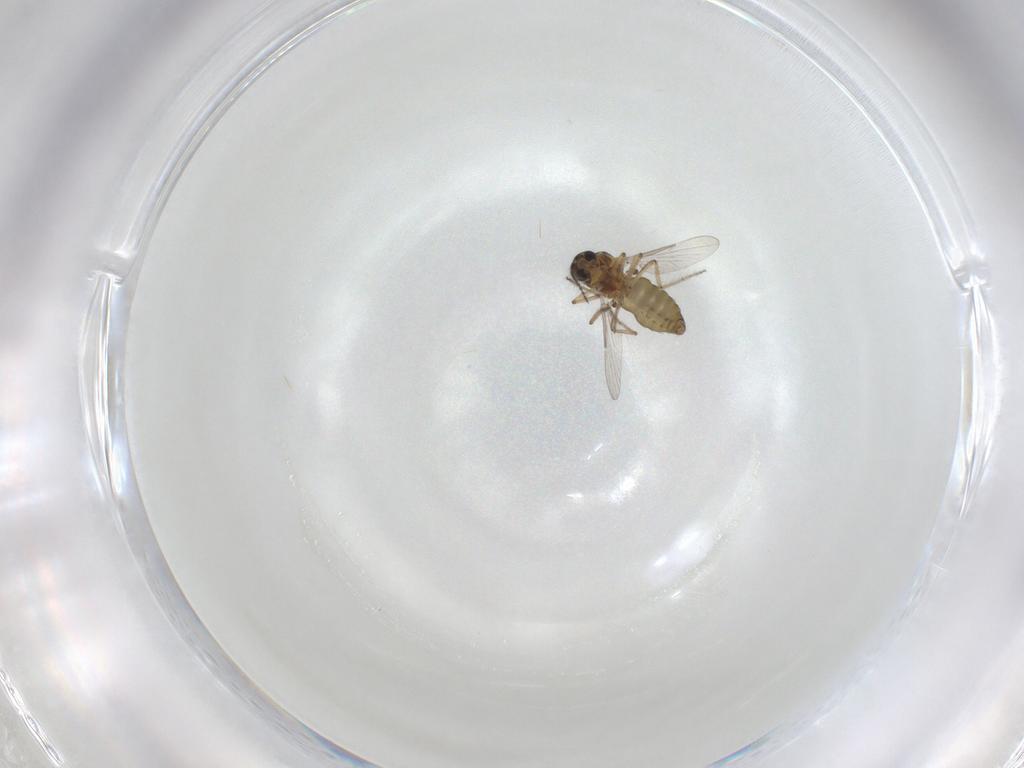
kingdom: Animalia
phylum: Arthropoda
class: Insecta
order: Diptera
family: Ceratopogonidae
